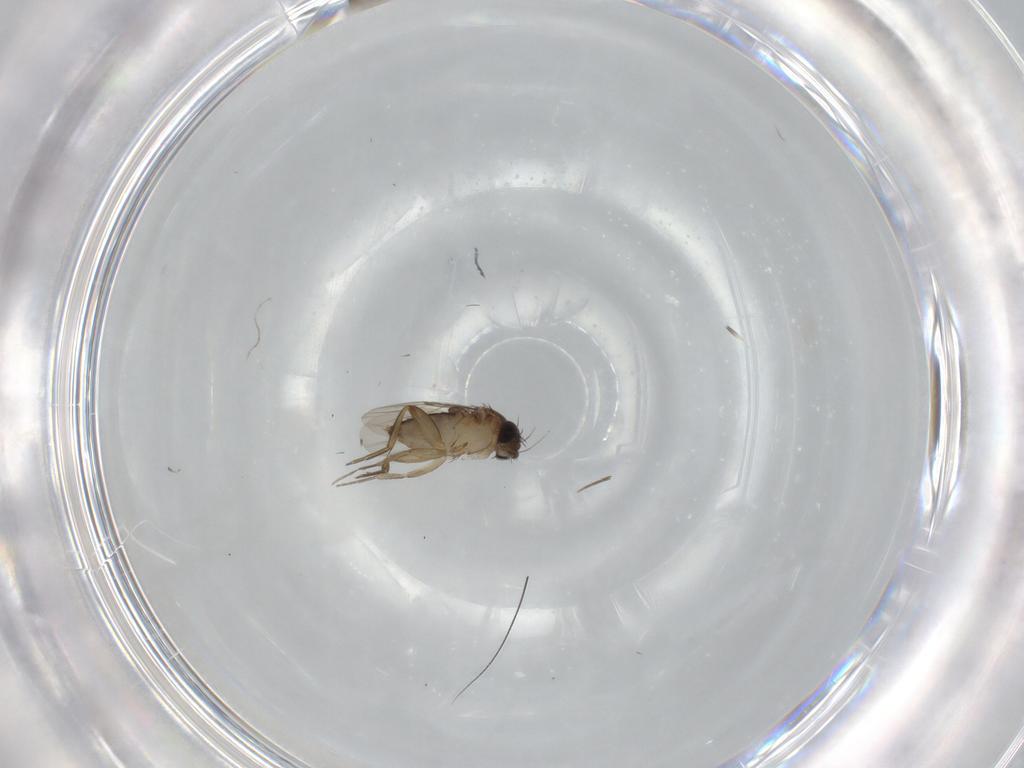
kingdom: Animalia
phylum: Arthropoda
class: Insecta
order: Diptera
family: Phoridae
